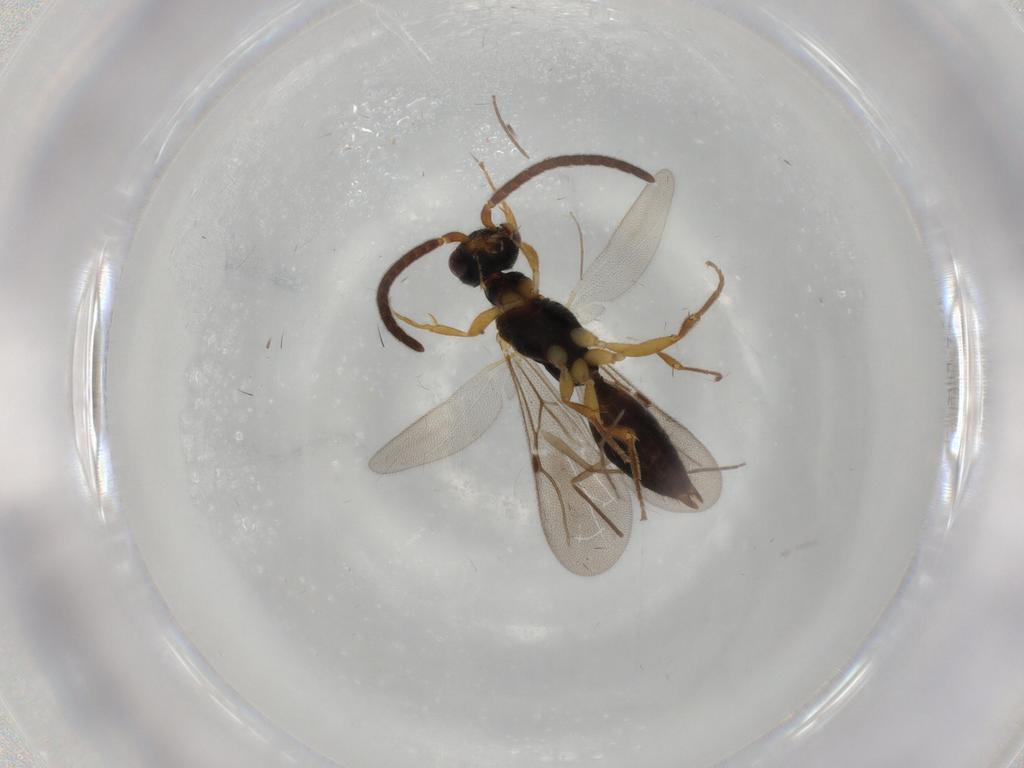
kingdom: Animalia
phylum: Arthropoda
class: Insecta
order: Hymenoptera
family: Bethylidae
